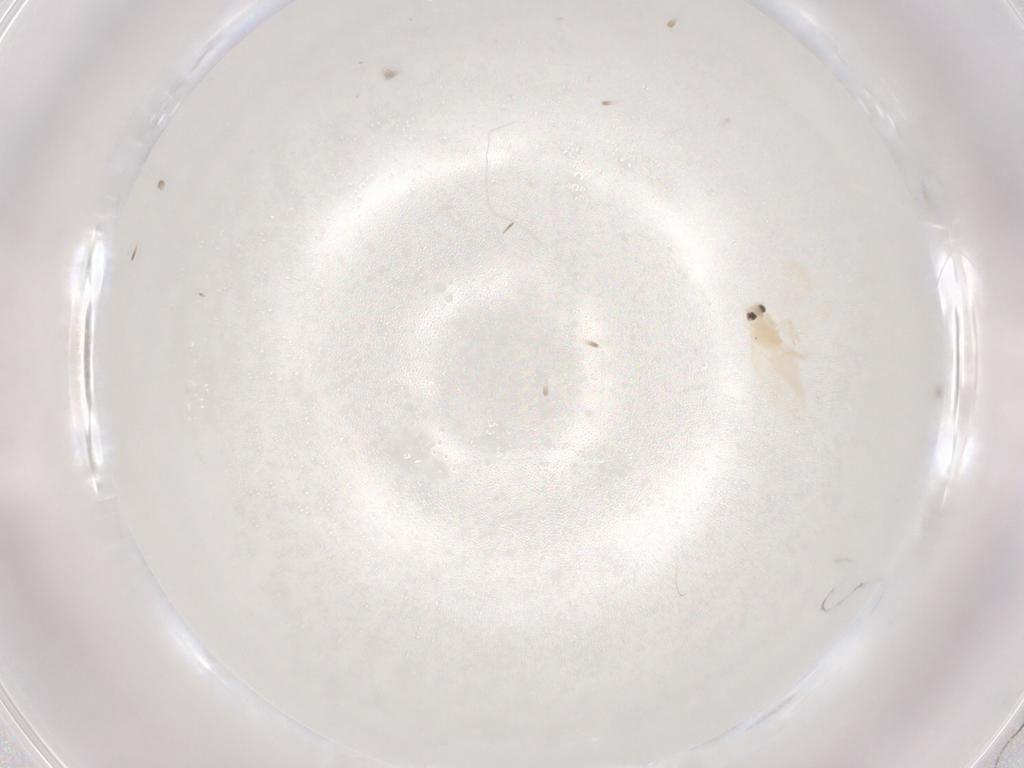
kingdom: Animalia
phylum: Arthropoda
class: Insecta
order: Hemiptera
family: Aleyrodidae
